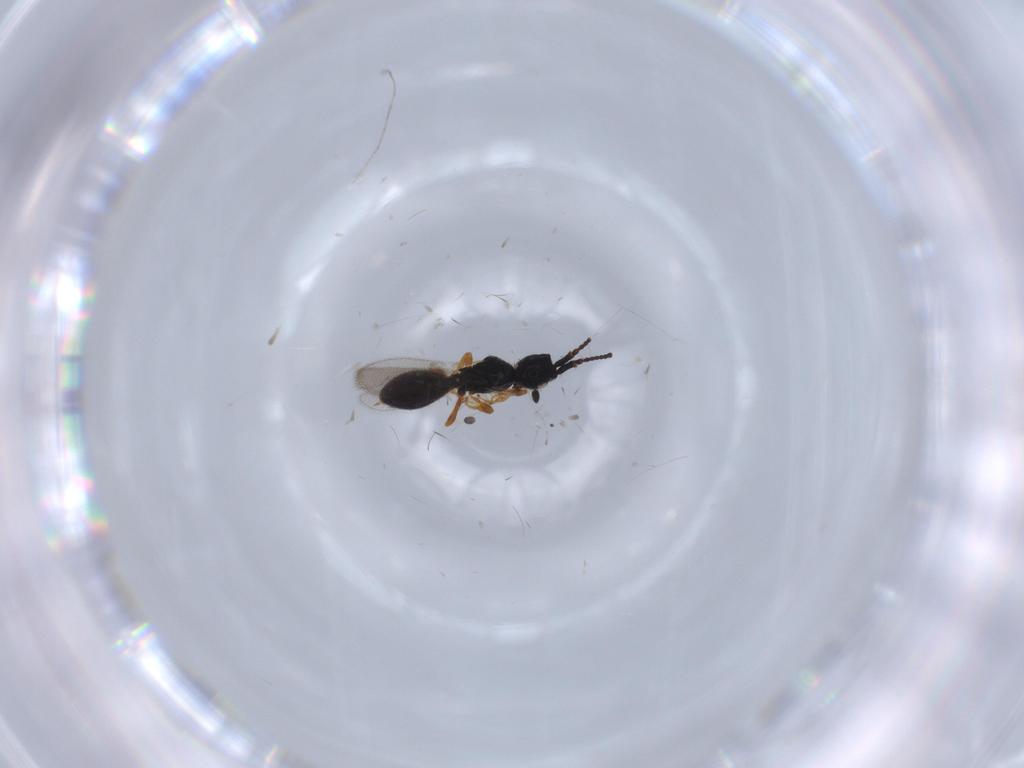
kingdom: Animalia
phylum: Arthropoda
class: Insecta
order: Hymenoptera
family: Diapriidae
